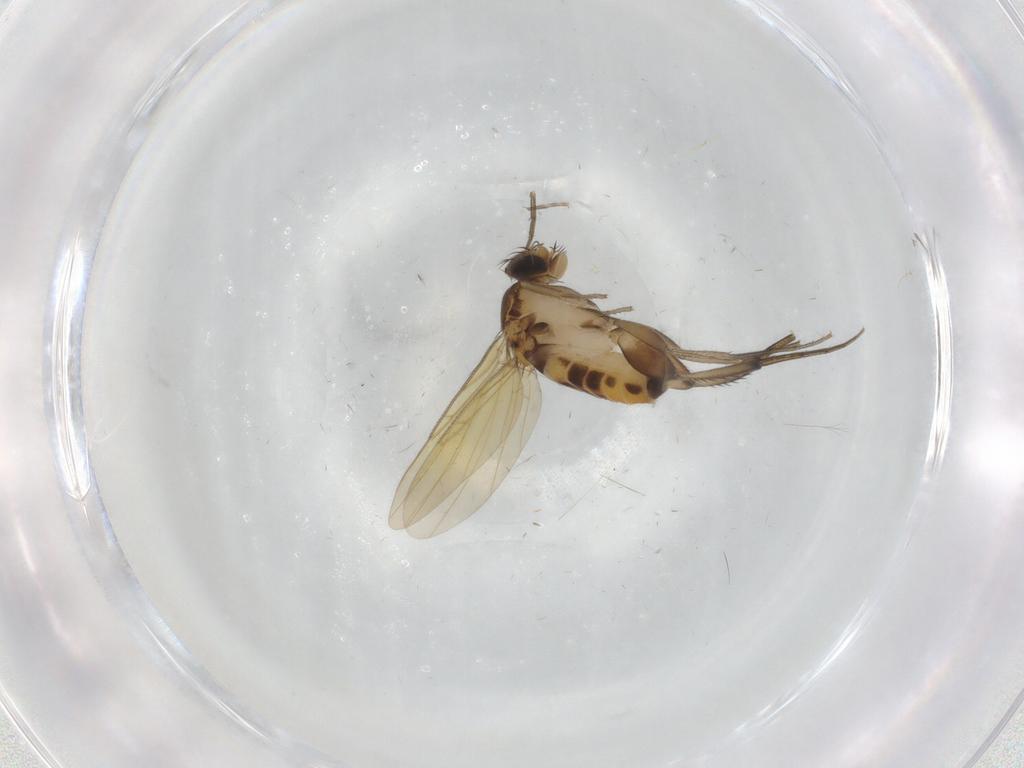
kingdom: Animalia
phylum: Arthropoda
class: Insecta
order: Diptera
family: Phoridae
